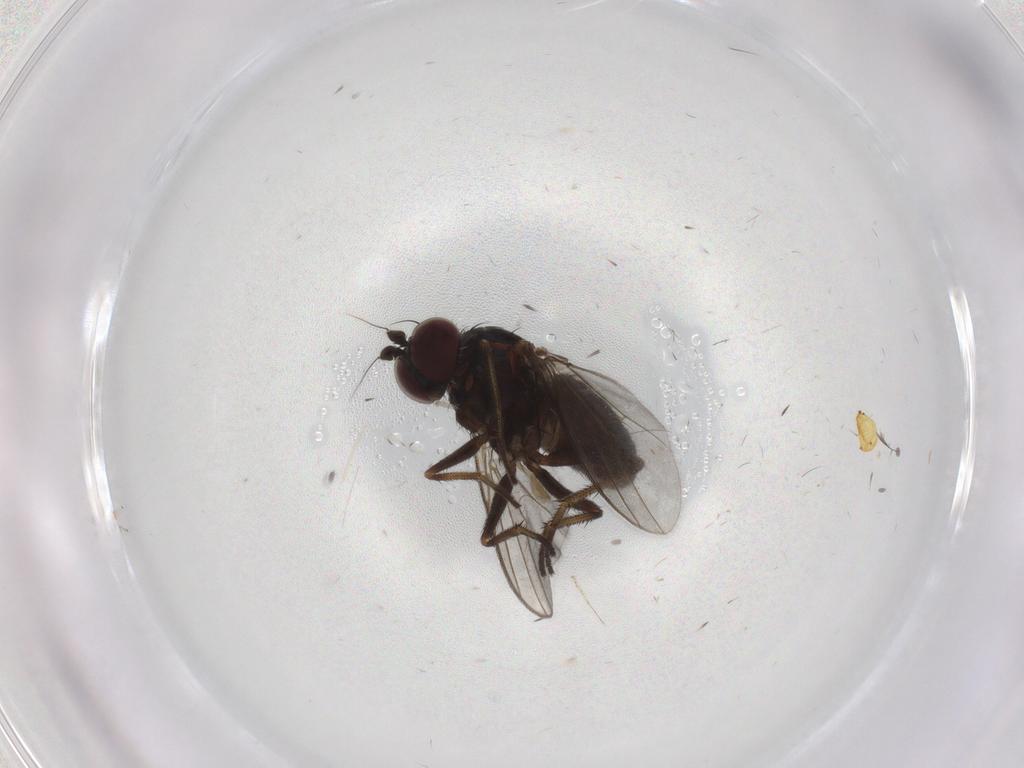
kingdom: Animalia
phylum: Arthropoda
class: Insecta
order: Diptera
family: Dolichopodidae
